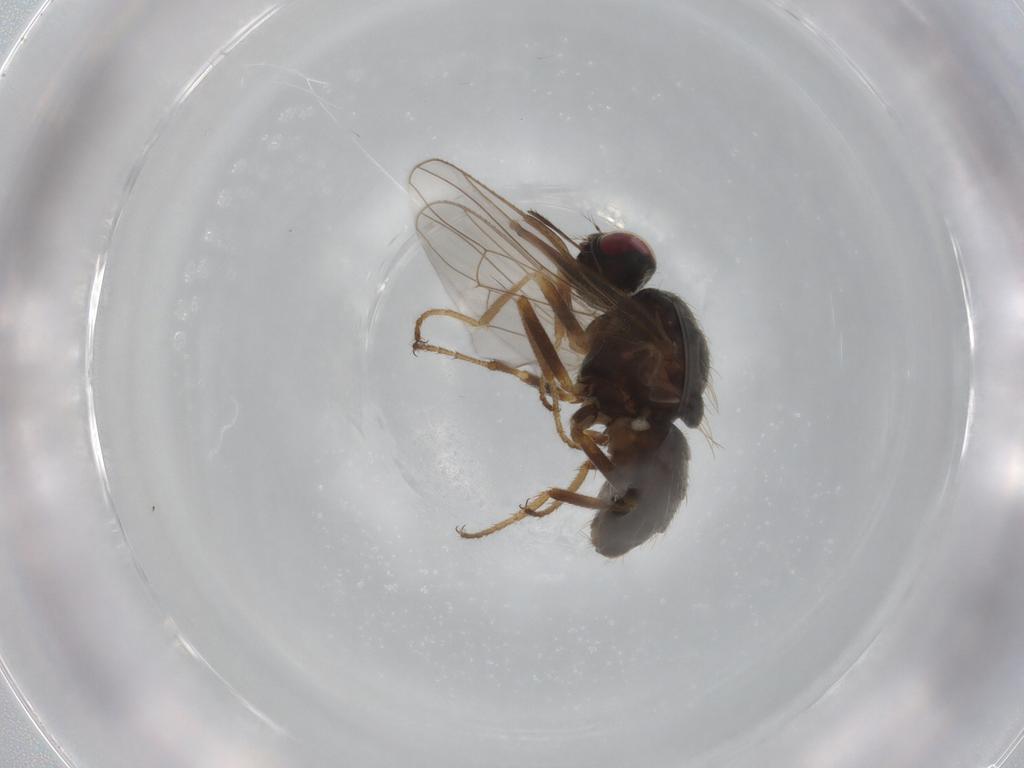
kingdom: Animalia
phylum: Arthropoda
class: Insecta
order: Diptera
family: Muscidae
